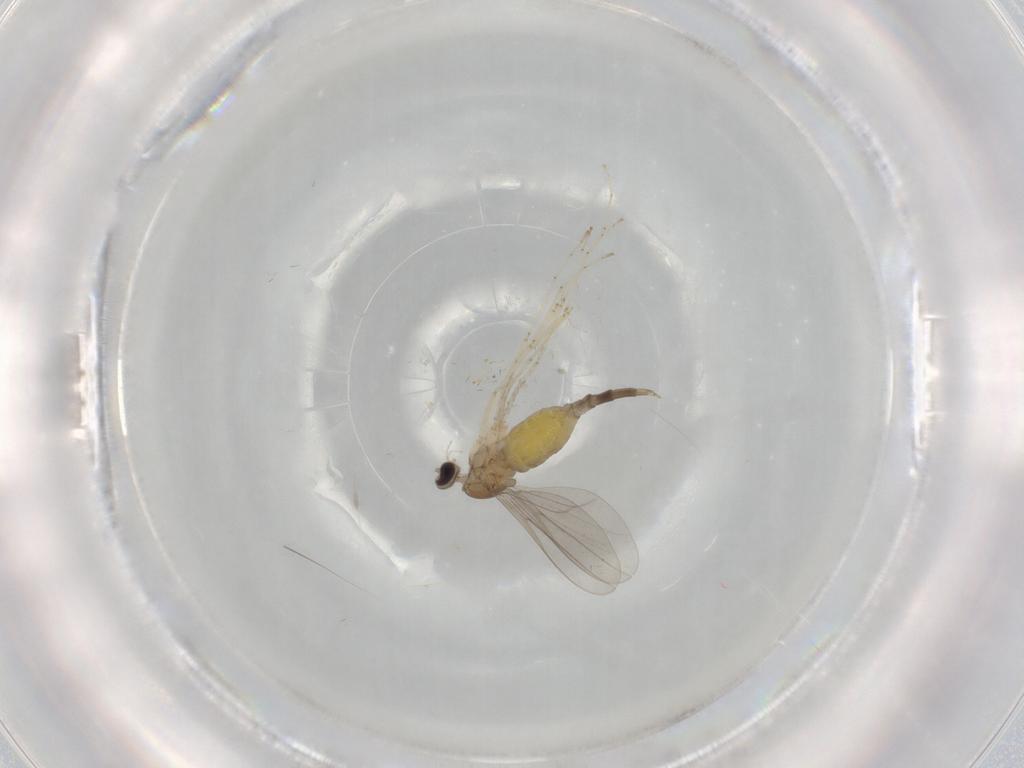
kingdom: Animalia
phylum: Arthropoda
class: Insecta
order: Diptera
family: Cecidomyiidae
